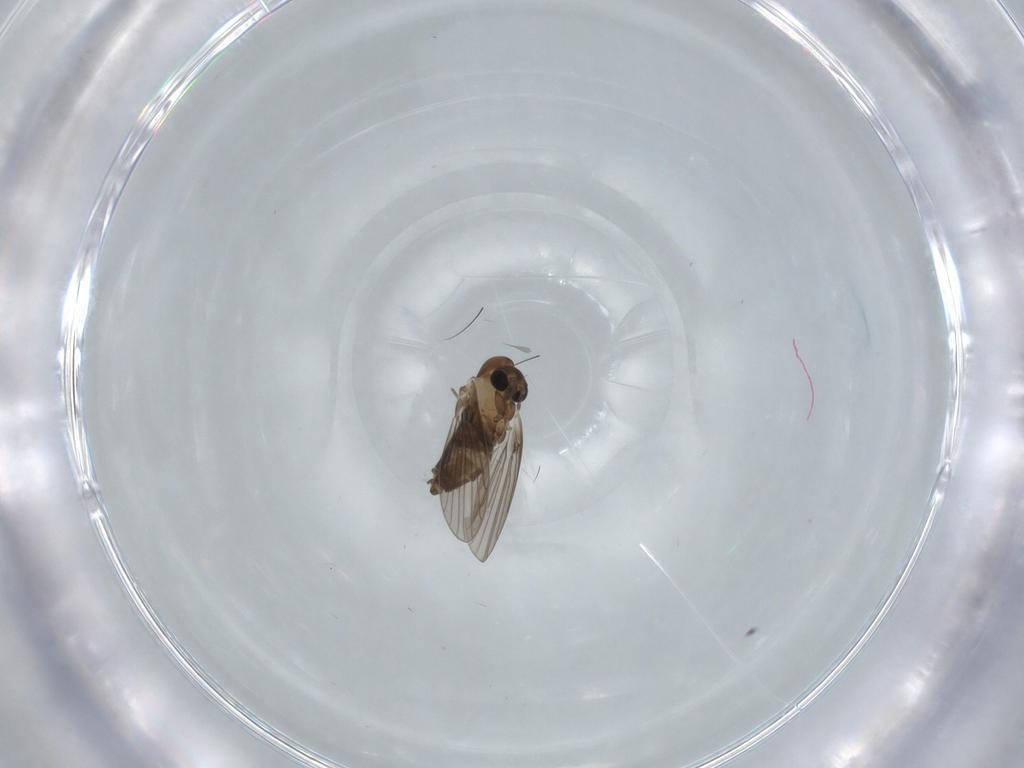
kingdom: Animalia
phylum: Arthropoda
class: Insecta
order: Diptera
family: Psychodidae
